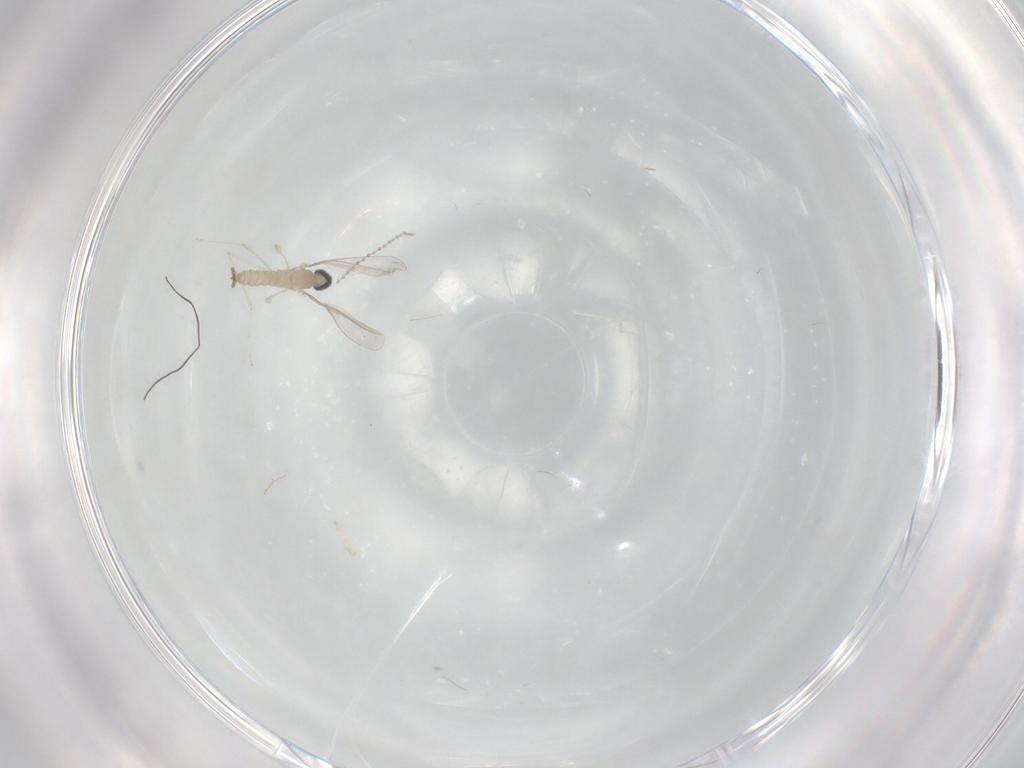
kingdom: Animalia
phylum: Arthropoda
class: Insecta
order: Diptera
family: Cecidomyiidae
